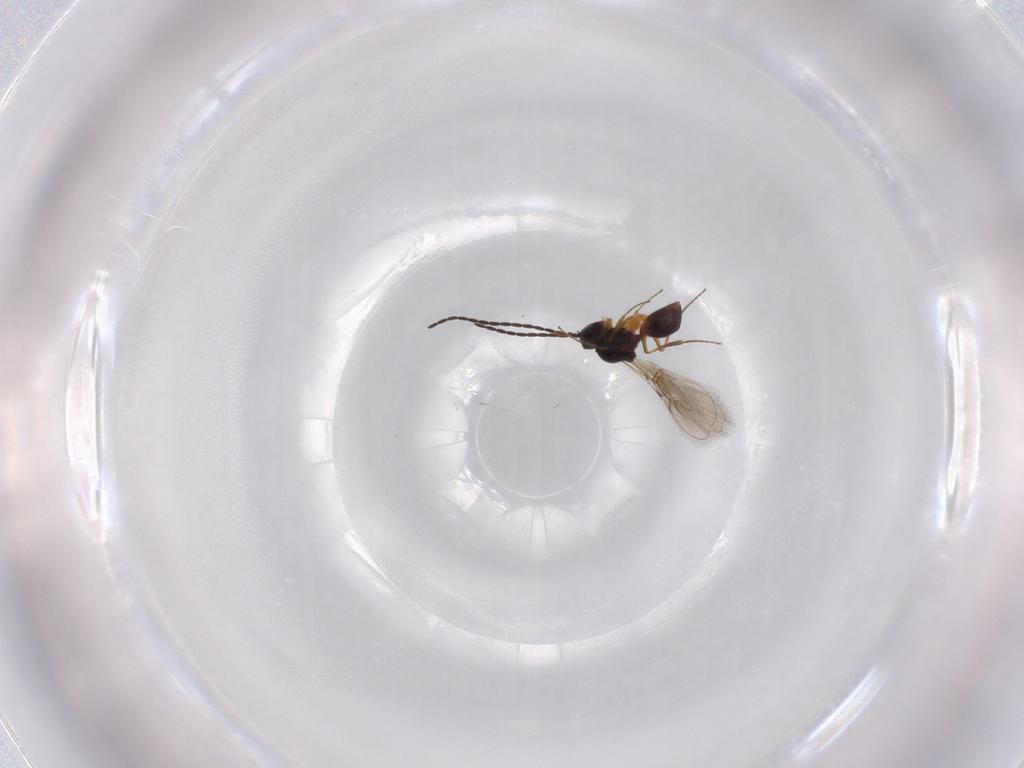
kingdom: Animalia
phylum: Arthropoda
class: Insecta
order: Hymenoptera
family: Figitidae
